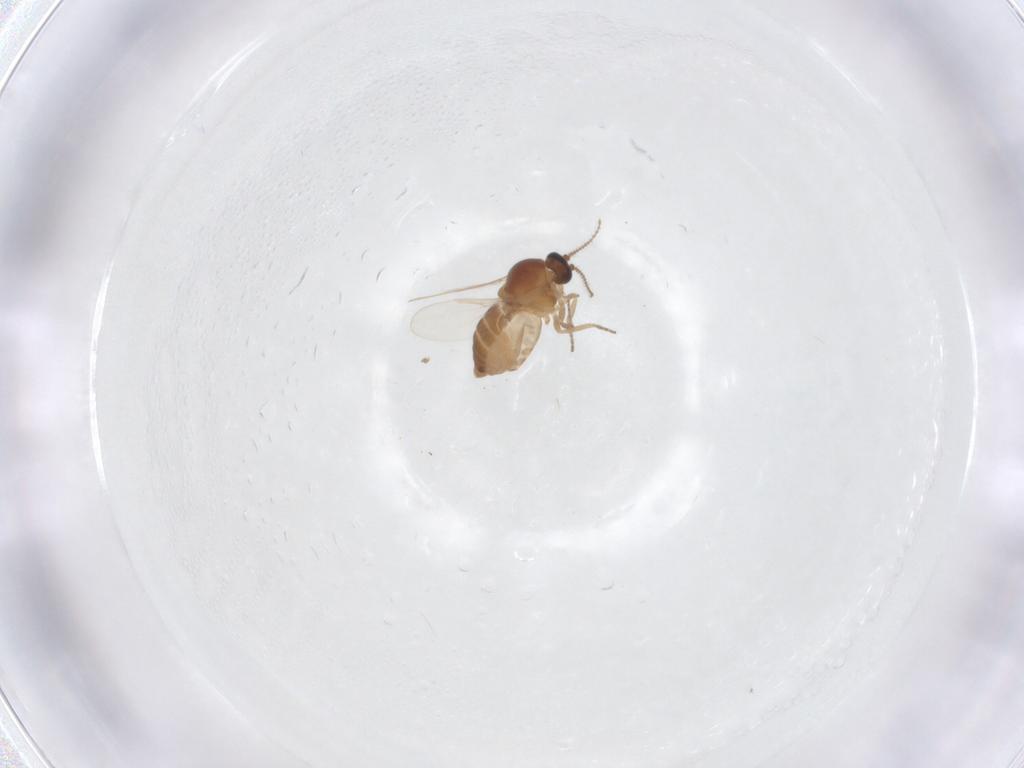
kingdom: Animalia
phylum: Arthropoda
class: Insecta
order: Diptera
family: Ceratopogonidae
